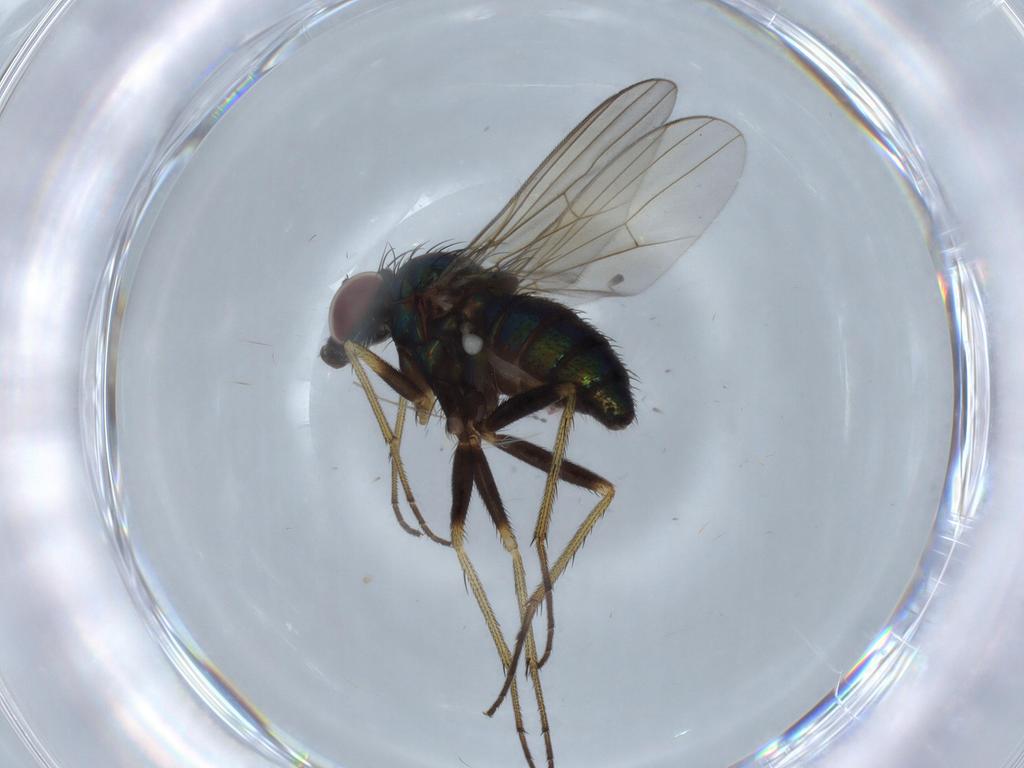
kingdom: Animalia
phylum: Arthropoda
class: Insecta
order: Diptera
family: Dolichopodidae
